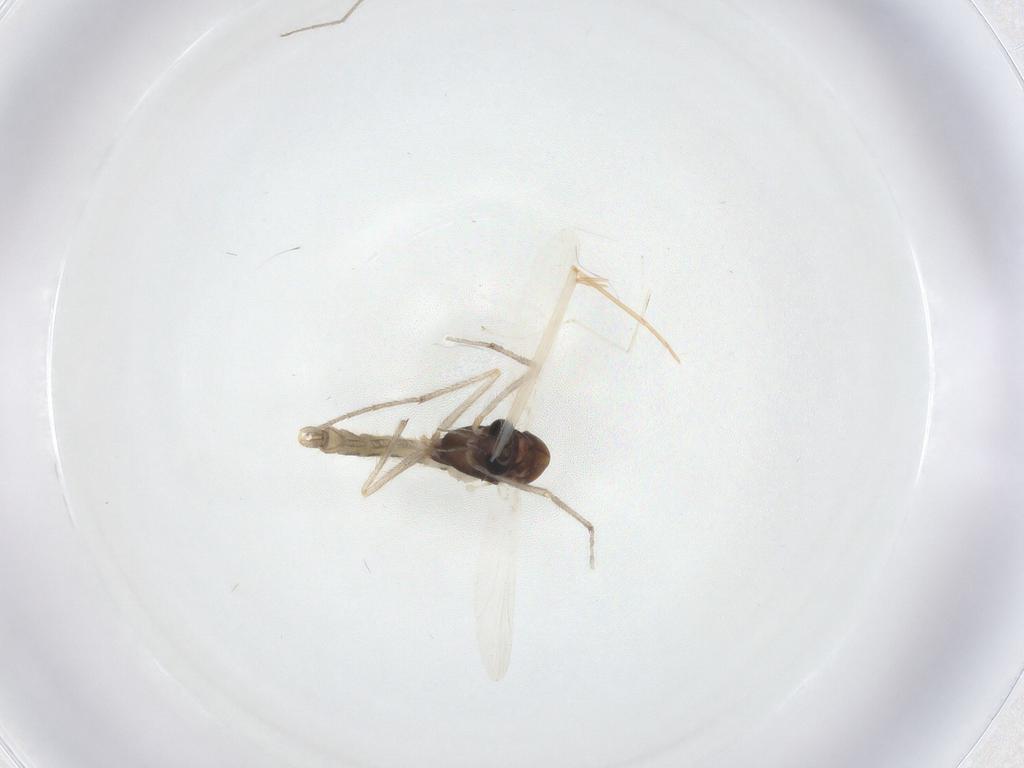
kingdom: Animalia
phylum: Arthropoda
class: Insecta
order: Diptera
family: Chironomidae
